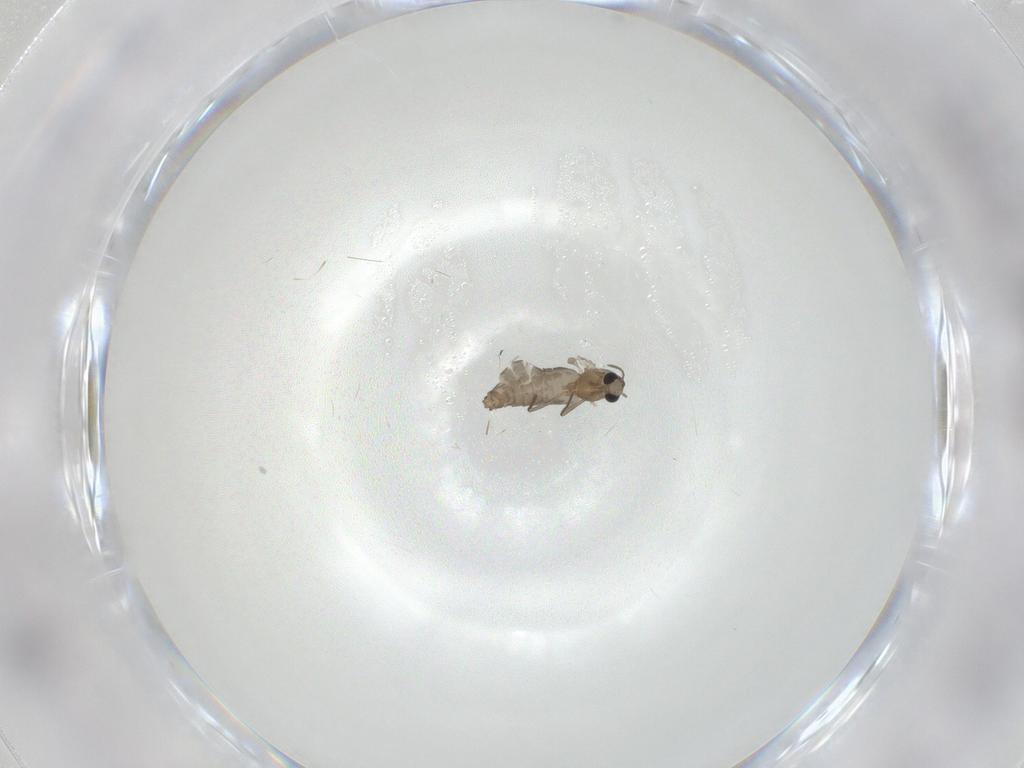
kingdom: Animalia
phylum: Arthropoda
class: Insecta
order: Diptera
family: Chironomidae
